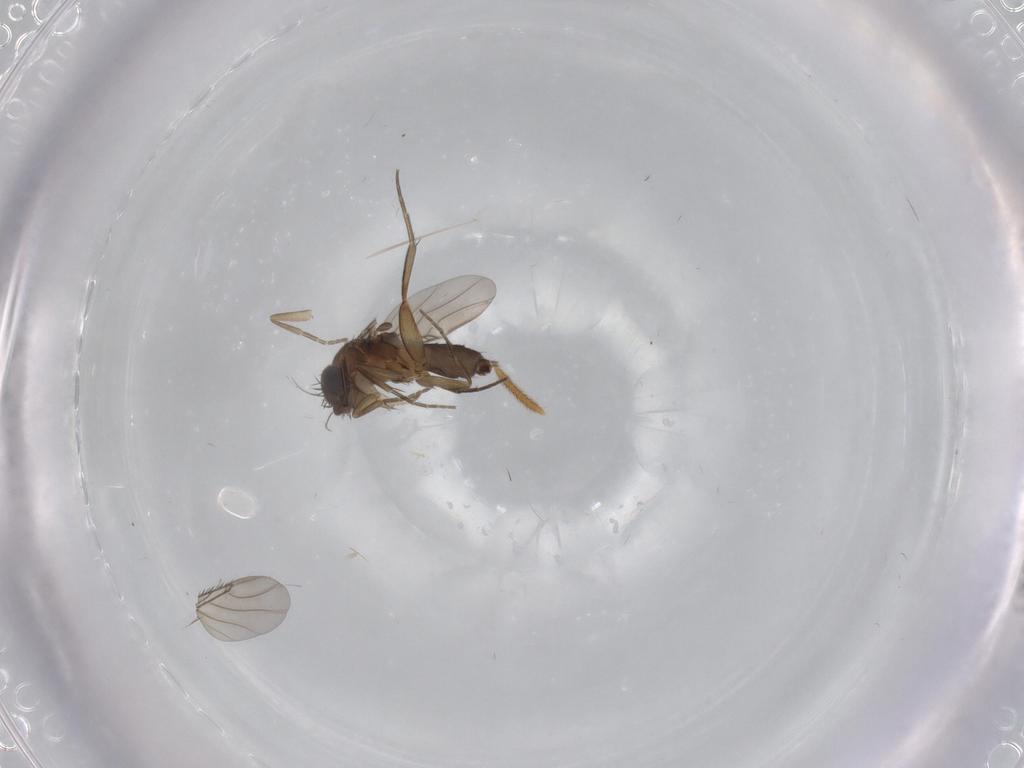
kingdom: Animalia
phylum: Arthropoda
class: Insecta
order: Diptera
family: Phoridae
